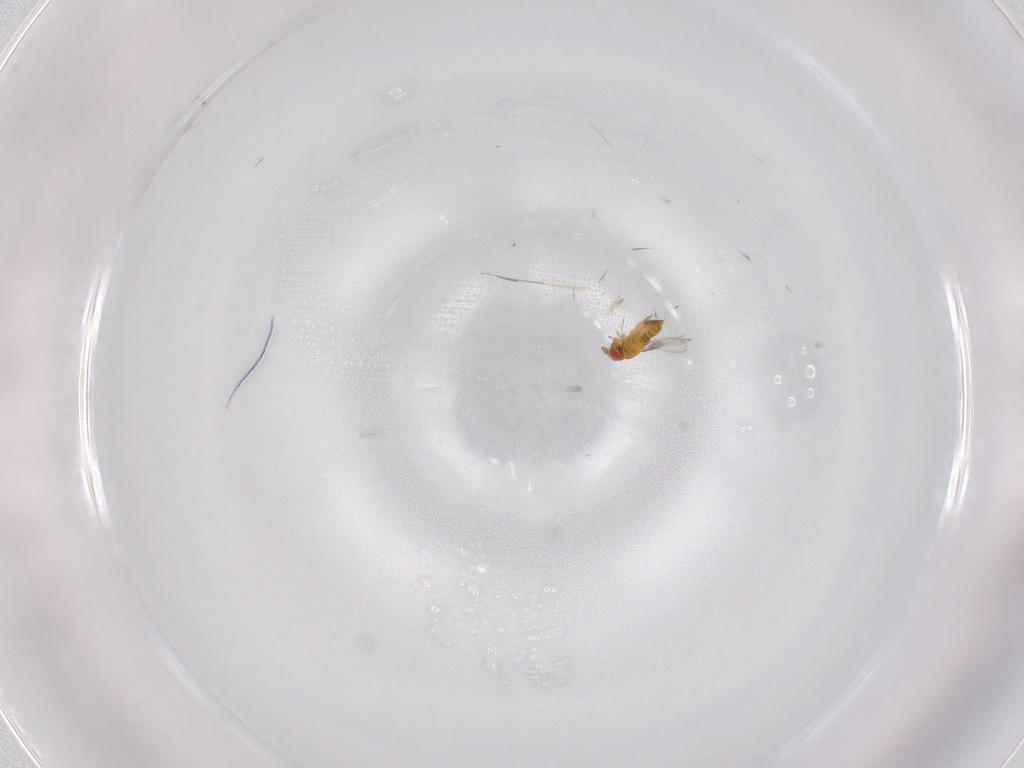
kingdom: Animalia
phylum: Arthropoda
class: Insecta
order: Hymenoptera
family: Trichogrammatidae
